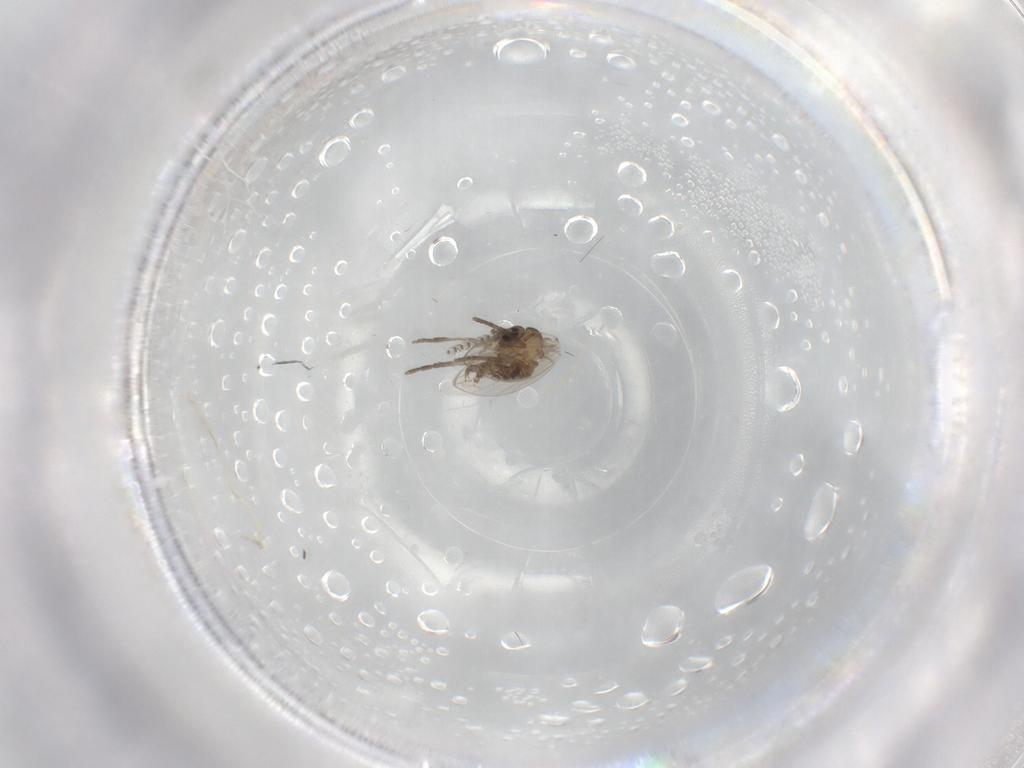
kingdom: Animalia
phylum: Arthropoda
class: Insecta
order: Diptera
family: Psychodidae
